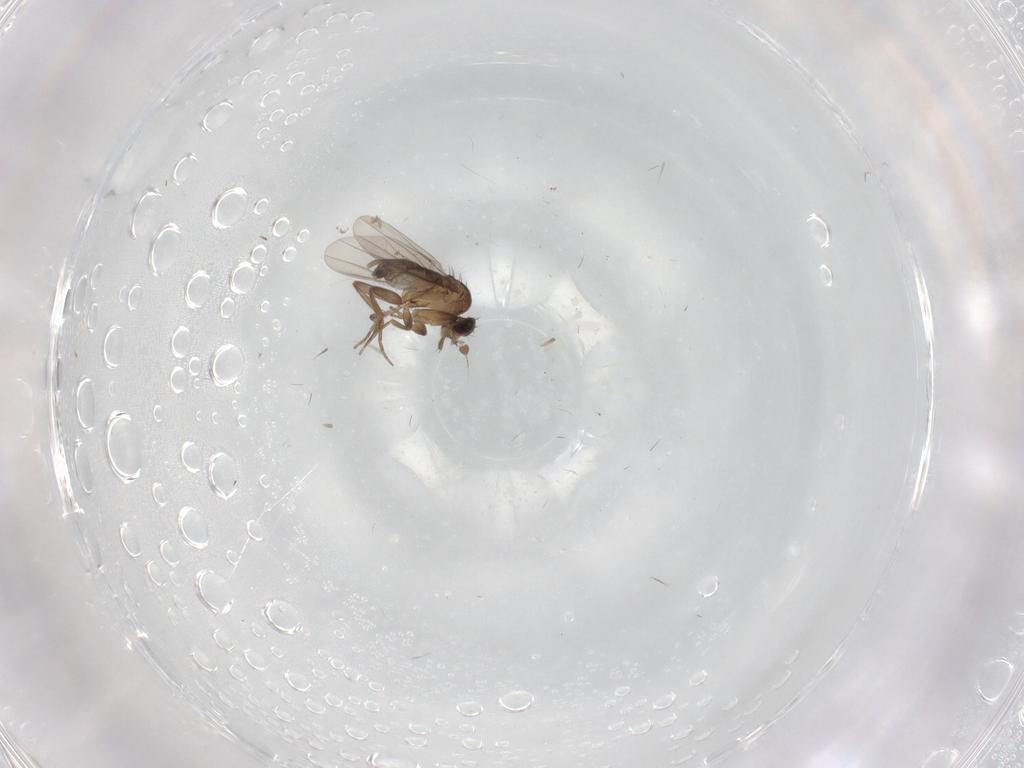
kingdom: Animalia
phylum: Arthropoda
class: Insecta
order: Diptera
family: Phoridae
